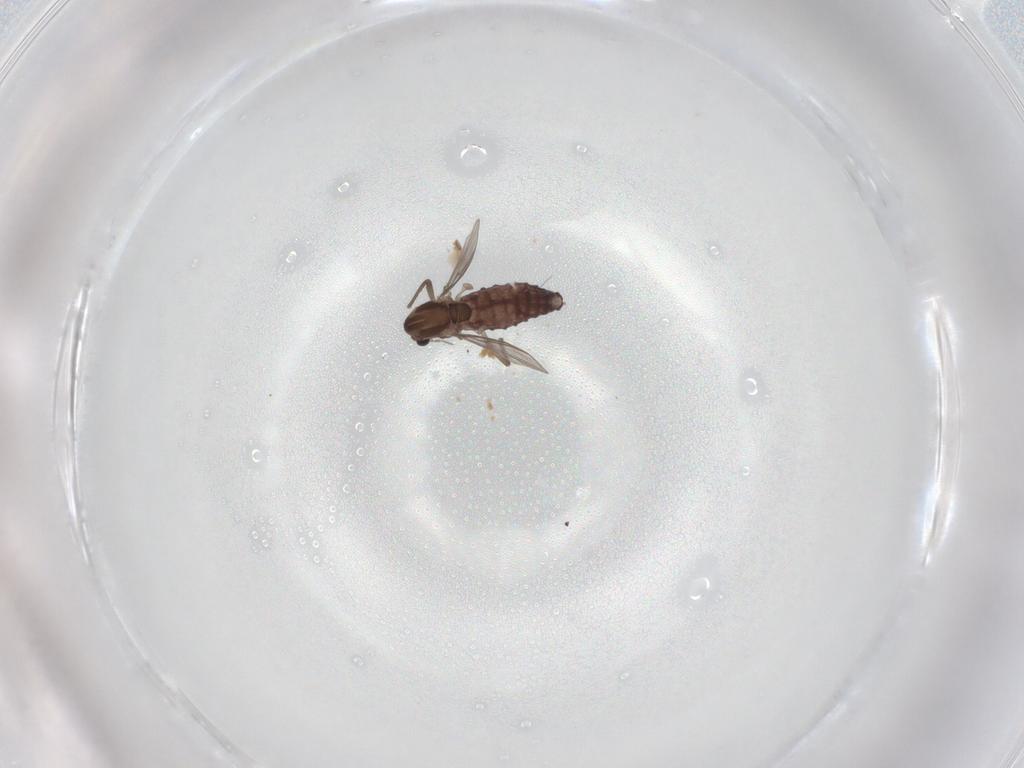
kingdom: Animalia
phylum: Arthropoda
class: Insecta
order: Diptera
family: Chironomidae
